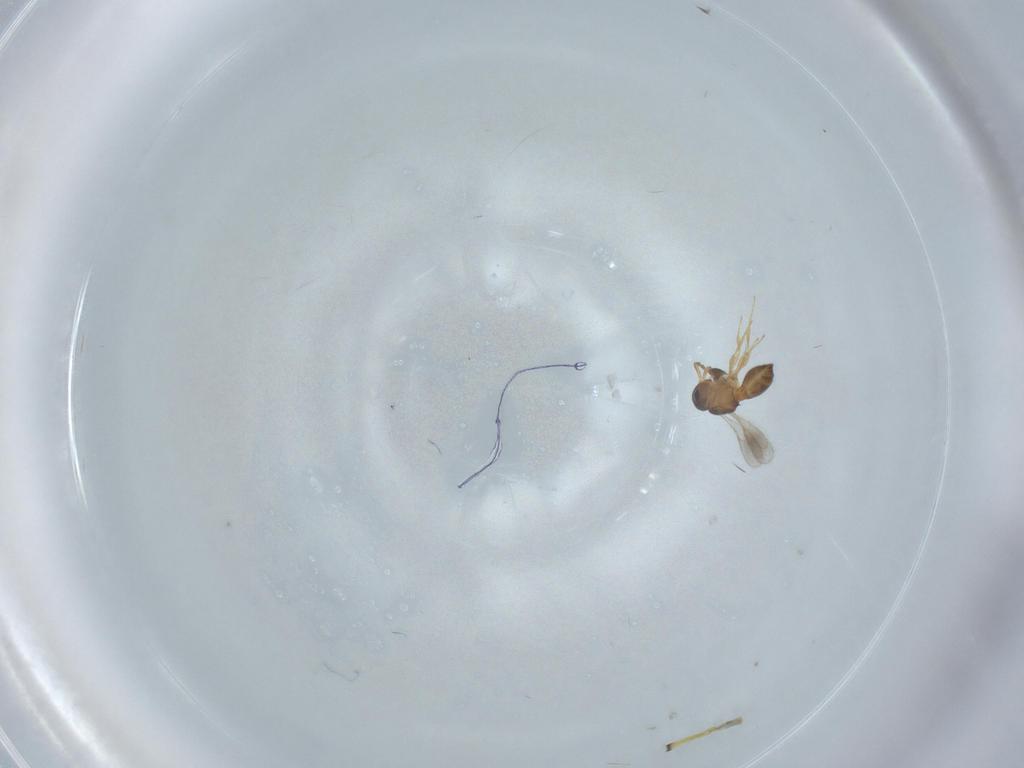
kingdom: Animalia
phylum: Arthropoda
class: Insecta
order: Hymenoptera
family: Scelionidae
